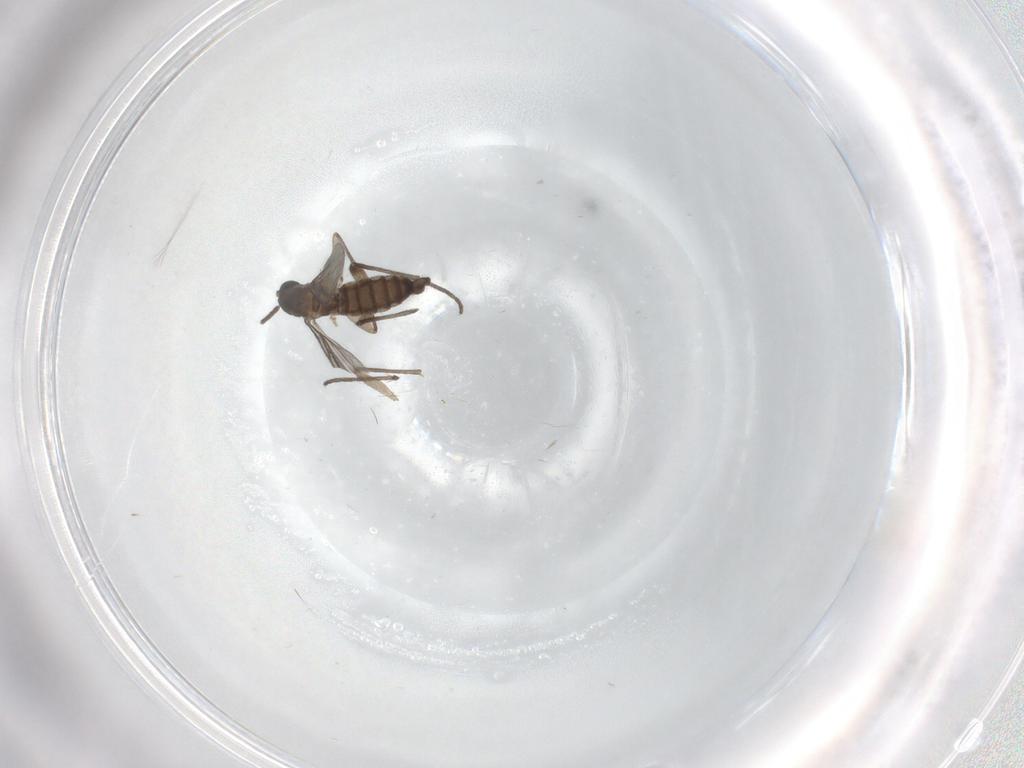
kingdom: Animalia
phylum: Arthropoda
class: Insecta
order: Diptera
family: Sciaridae
